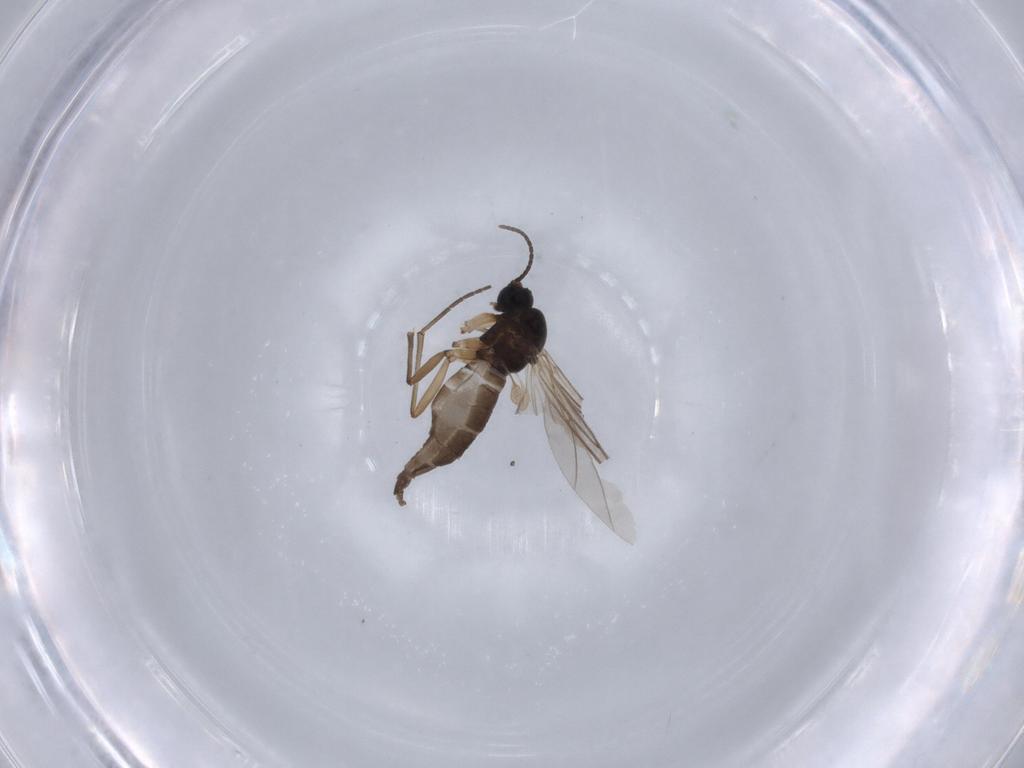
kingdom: Animalia
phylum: Arthropoda
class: Insecta
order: Diptera
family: Sciaridae
